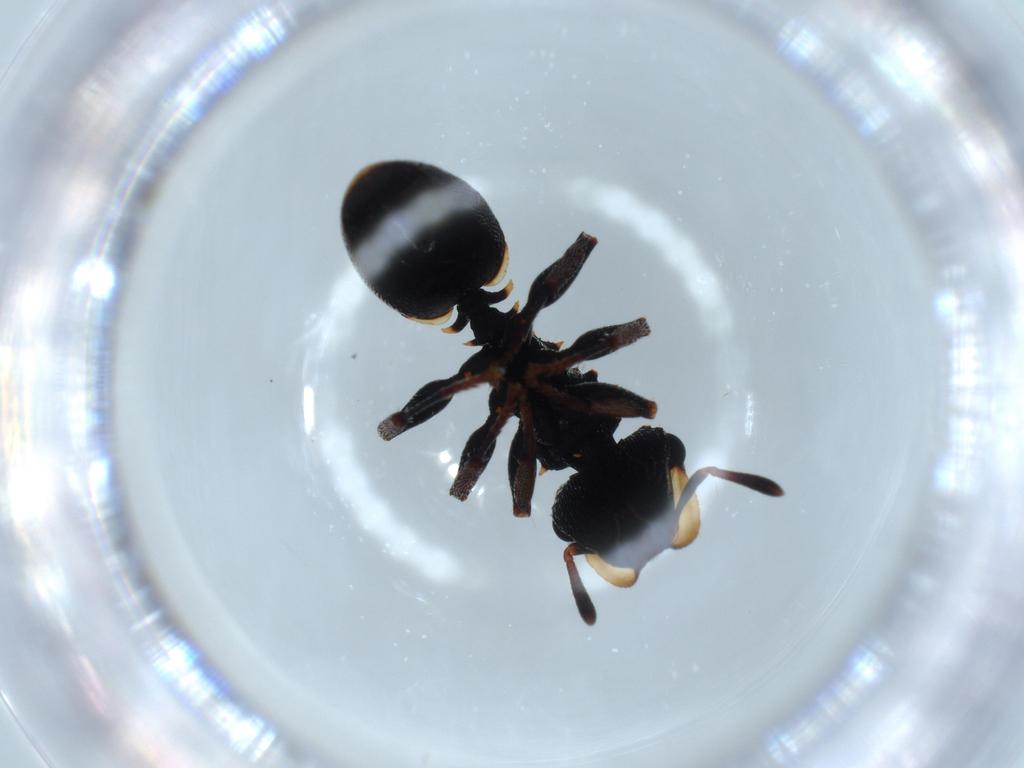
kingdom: Animalia
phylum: Arthropoda
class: Insecta
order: Hymenoptera
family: Formicidae
